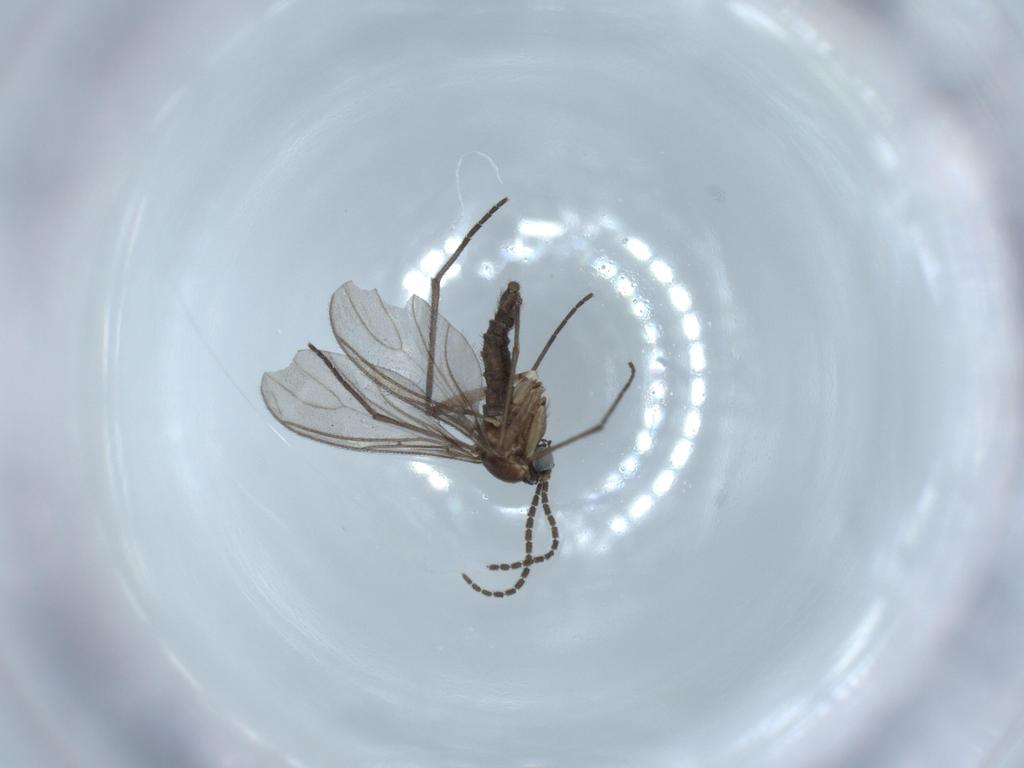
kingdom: Animalia
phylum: Arthropoda
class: Insecta
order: Diptera
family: Sciaridae
